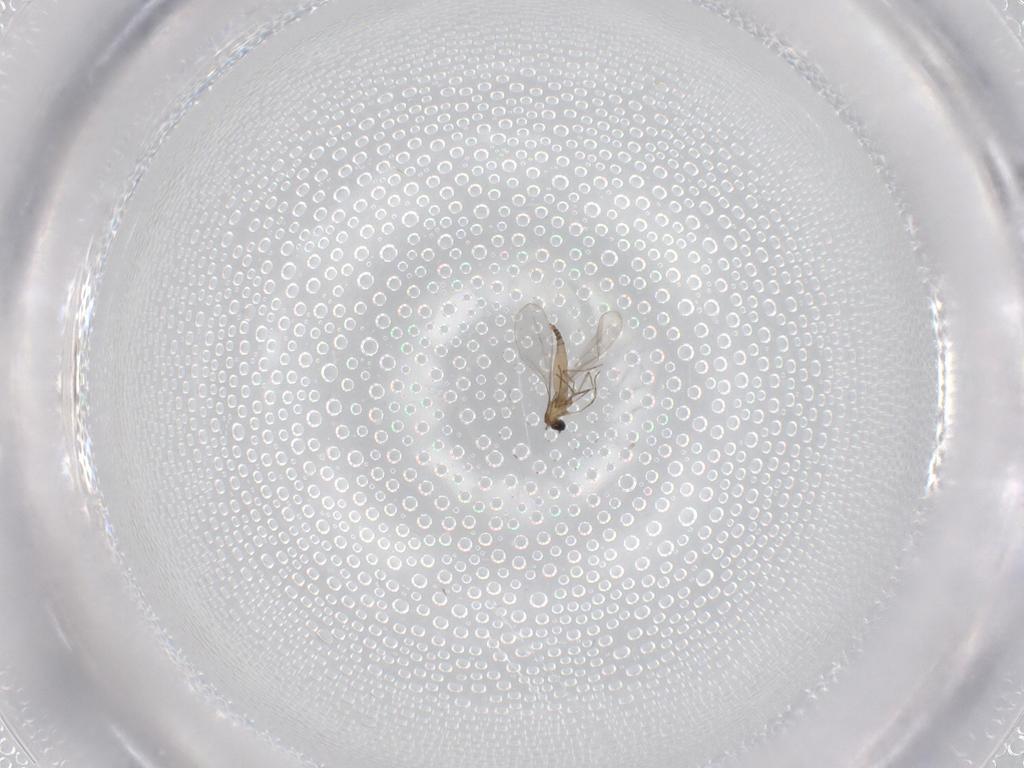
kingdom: Animalia
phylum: Arthropoda
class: Insecta
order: Diptera
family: Cecidomyiidae
